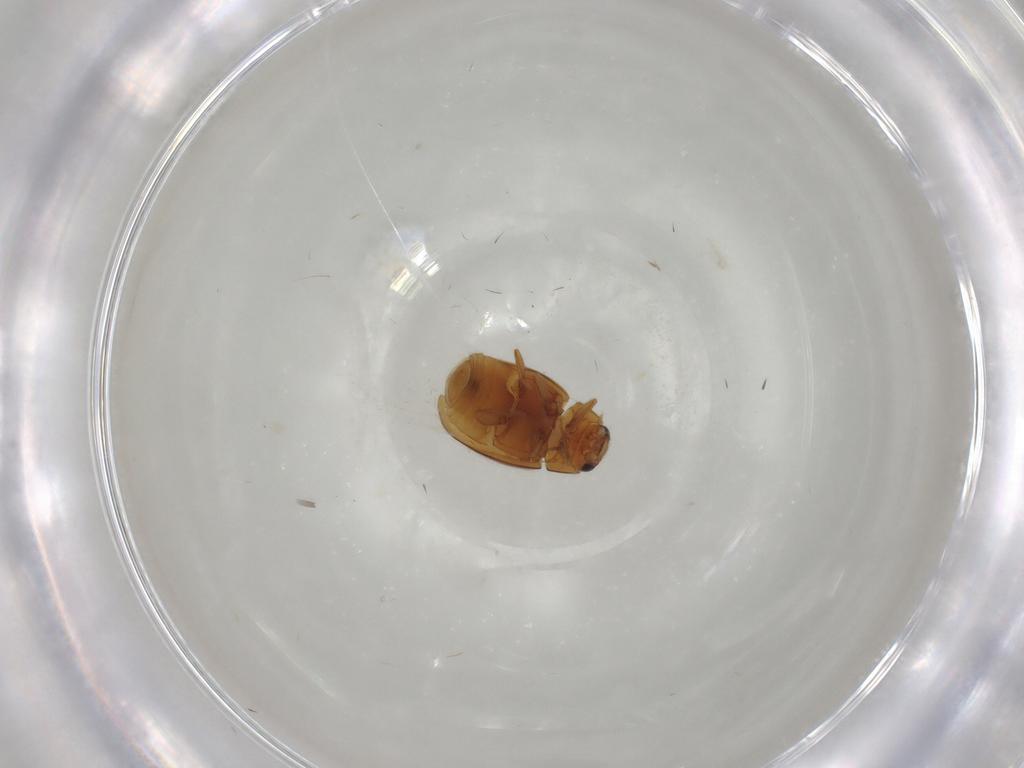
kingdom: Animalia
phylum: Arthropoda
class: Insecta
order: Coleoptera
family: Coccinellidae
